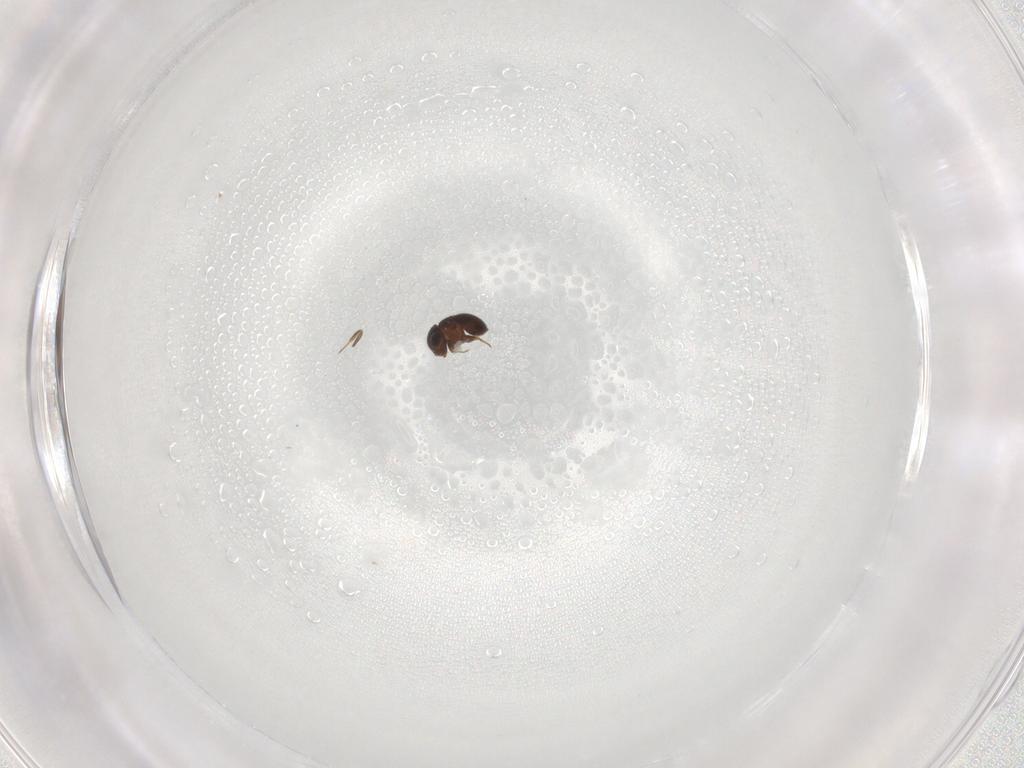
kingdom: Animalia
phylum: Arthropoda
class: Insecta
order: Hymenoptera
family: Scelionidae
